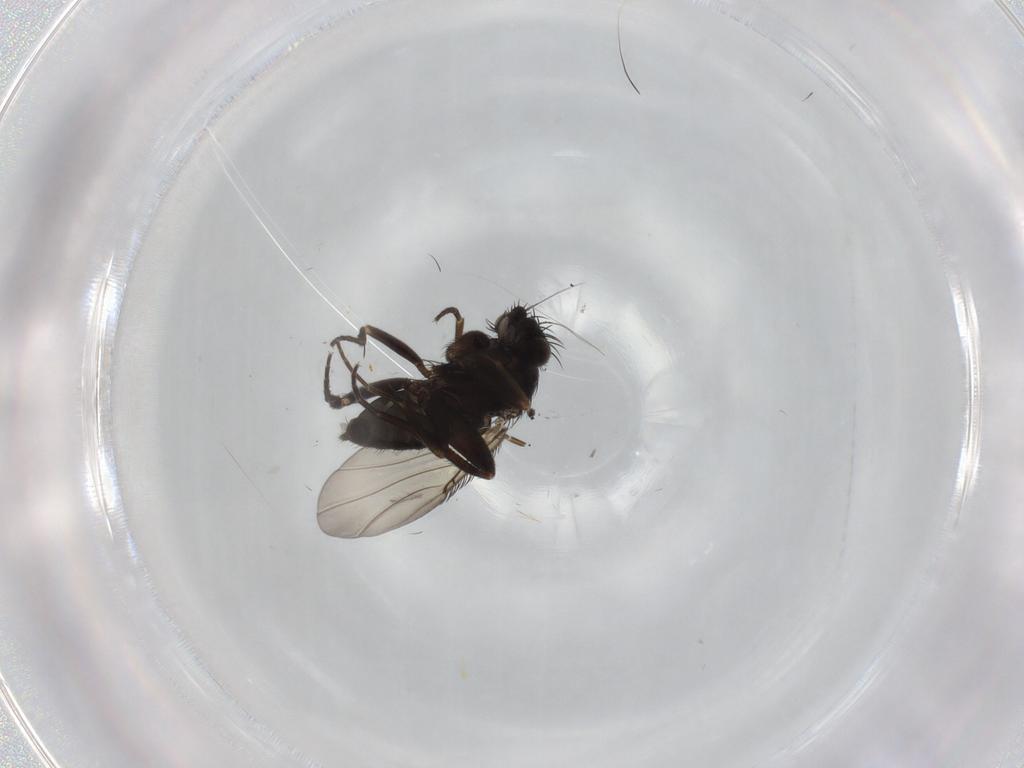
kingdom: Animalia
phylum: Arthropoda
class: Insecta
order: Diptera
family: Phoridae
